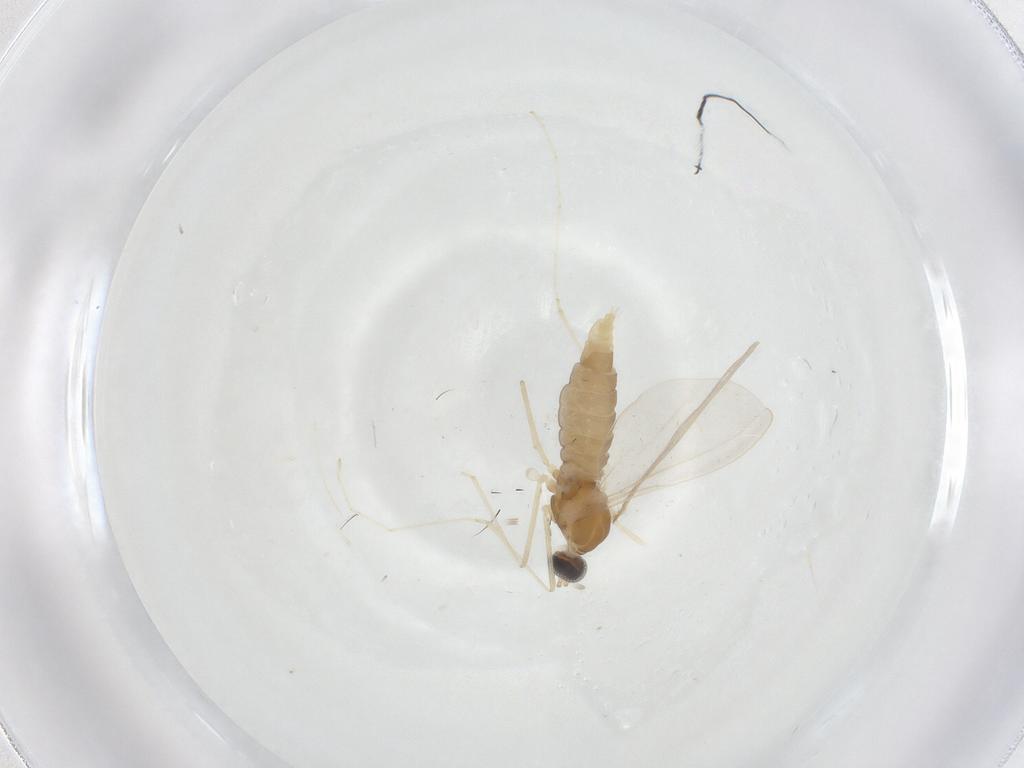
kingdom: Animalia
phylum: Arthropoda
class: Insecta
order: Diptera
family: Cecidomyiidae
